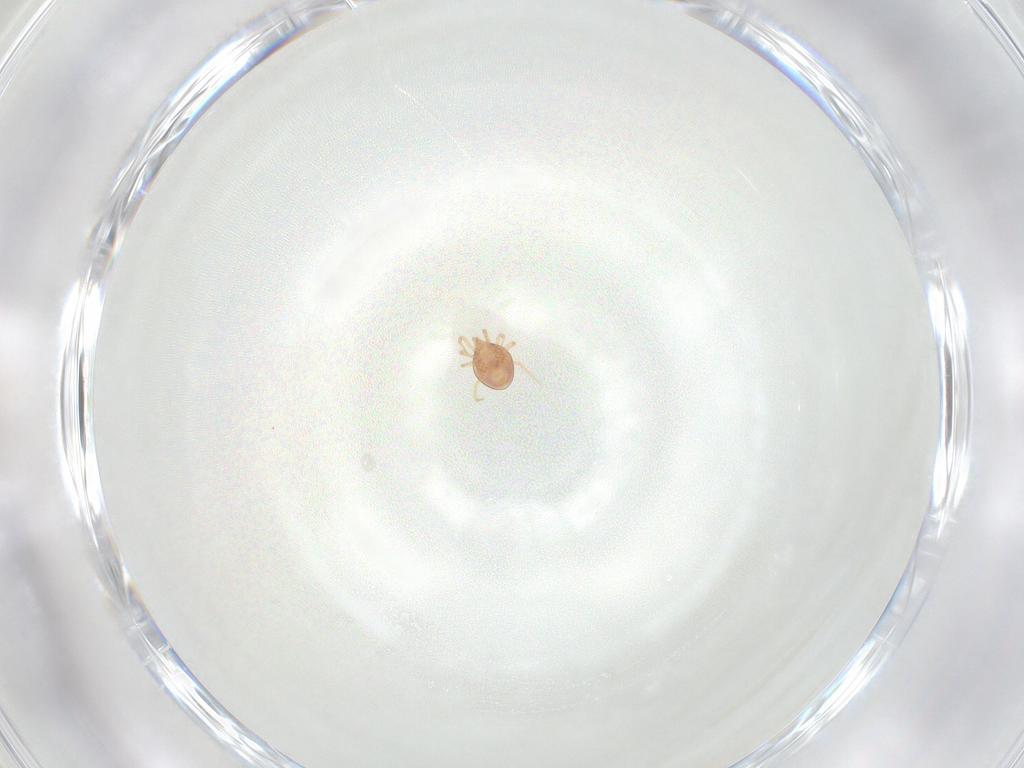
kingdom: Animalia
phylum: Arthropoda
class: Arachnida
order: Mesostigmata
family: Phytoseiidae
